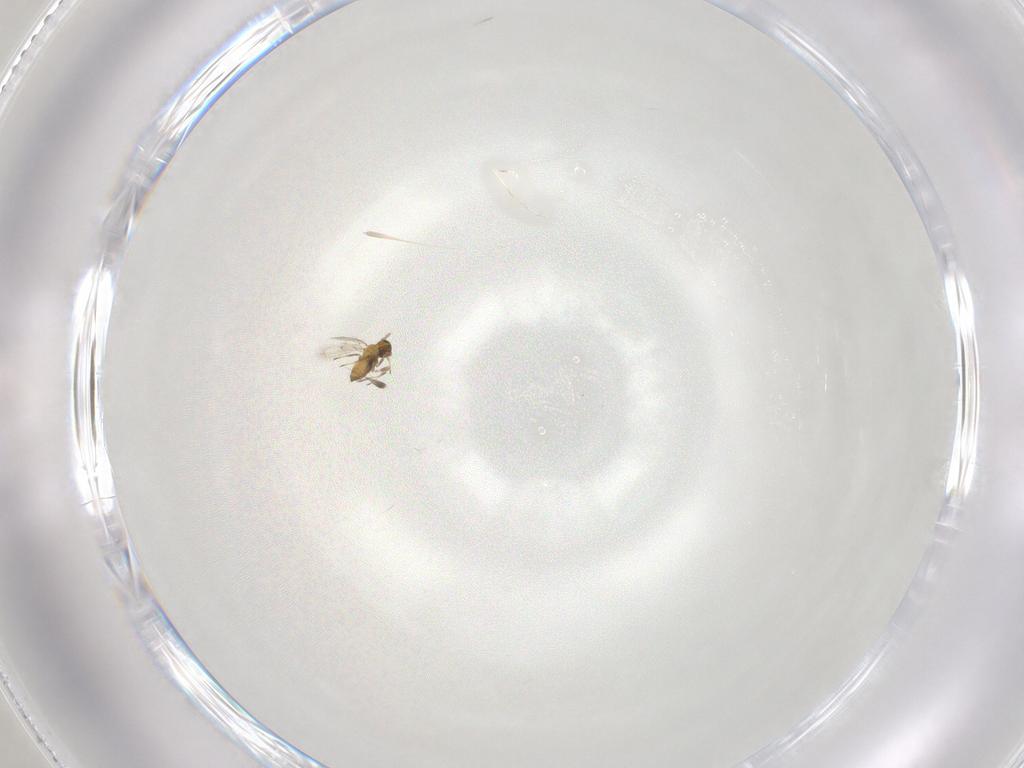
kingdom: Animalia
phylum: Arthropoda
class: Insecta
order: Hymenoptera
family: Trichogrammatidae
